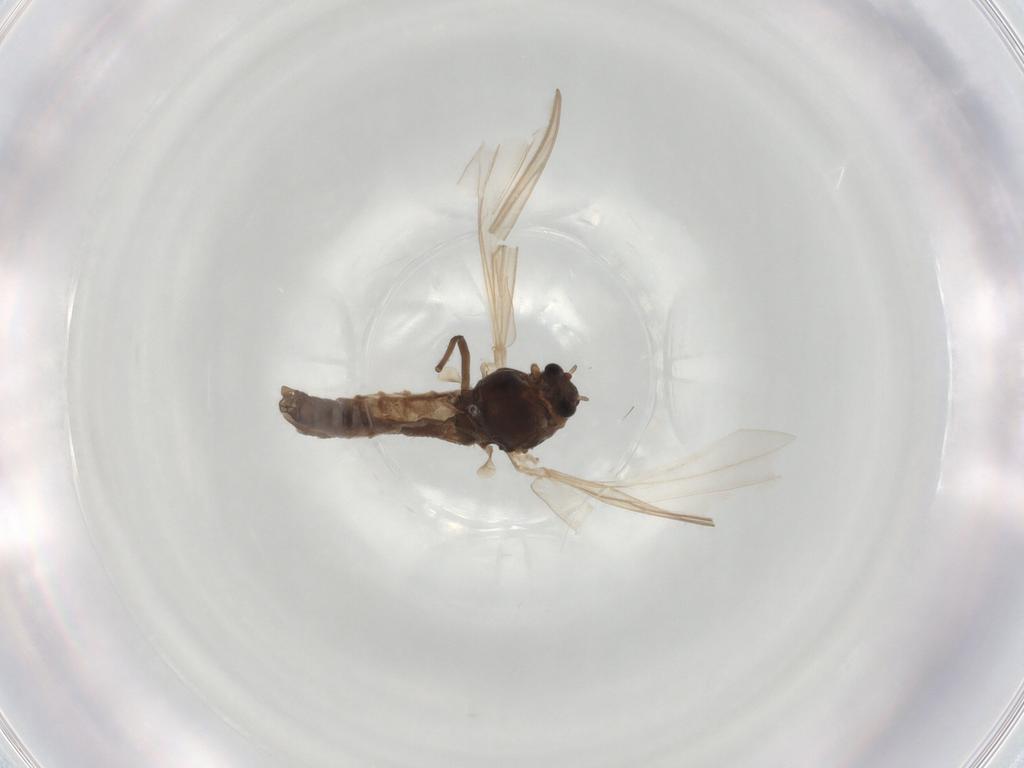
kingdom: Animalia
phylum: Arthropoda
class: Insecta
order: Diptera
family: Chironomidae
